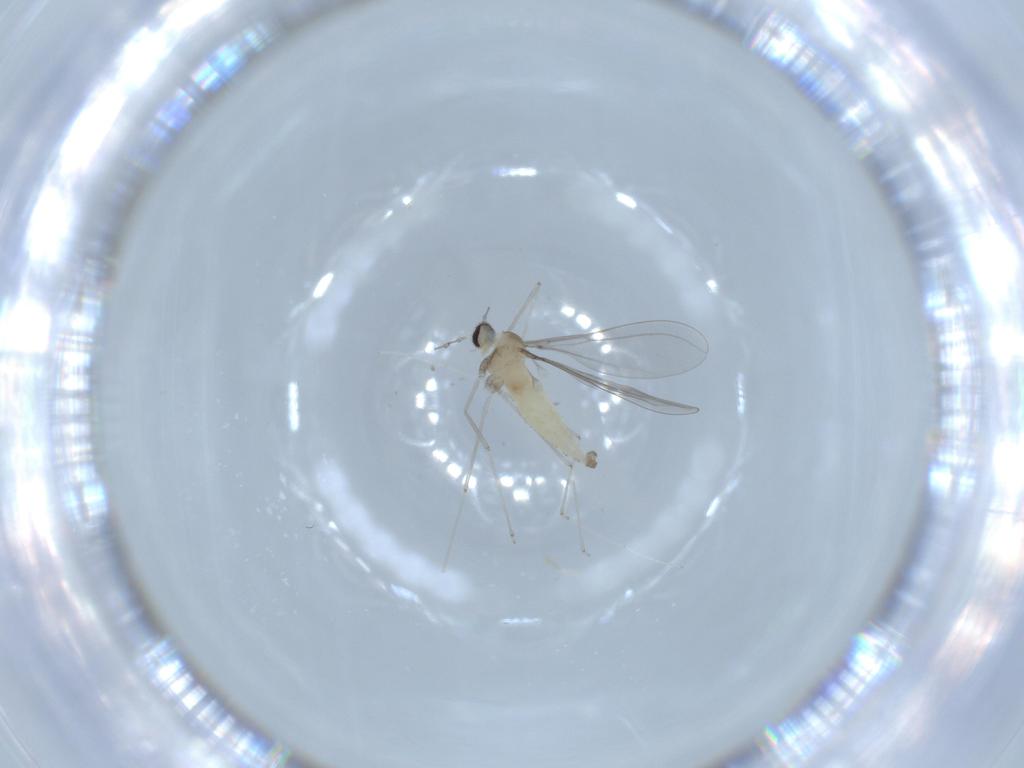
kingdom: Animalia
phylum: Arthropoda
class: Insecta
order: Diptera
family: Cecidomyiidae
